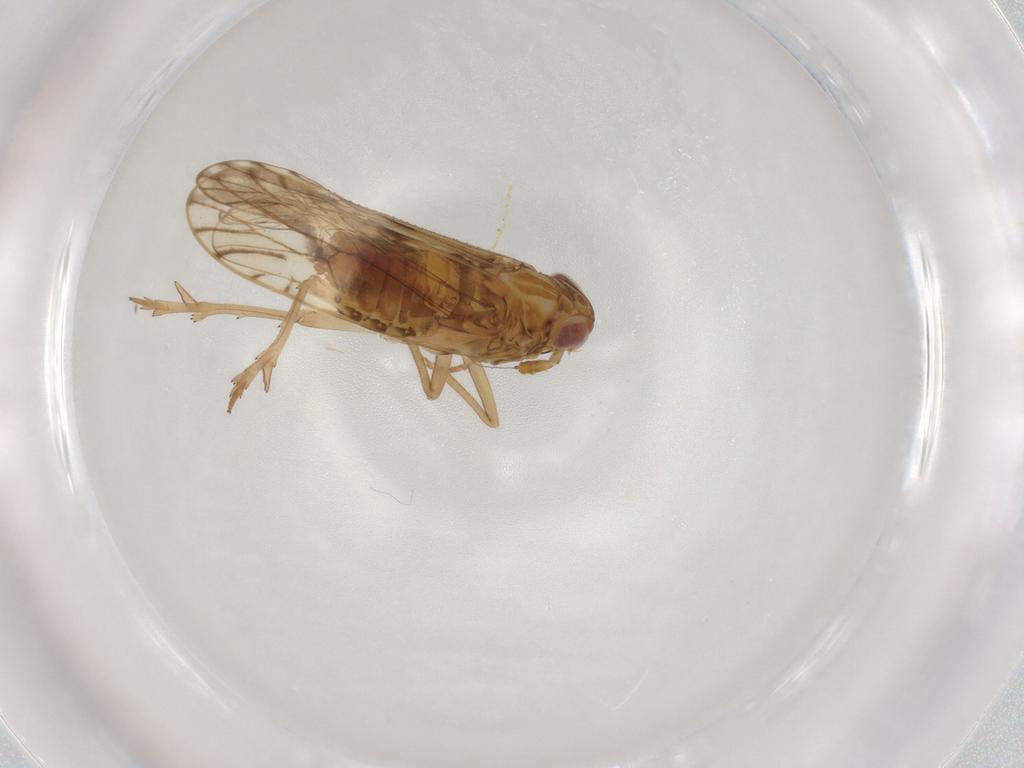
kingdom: Animalia
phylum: Arthropoda
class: Insecta
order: Hemiptera
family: Delphacidae
